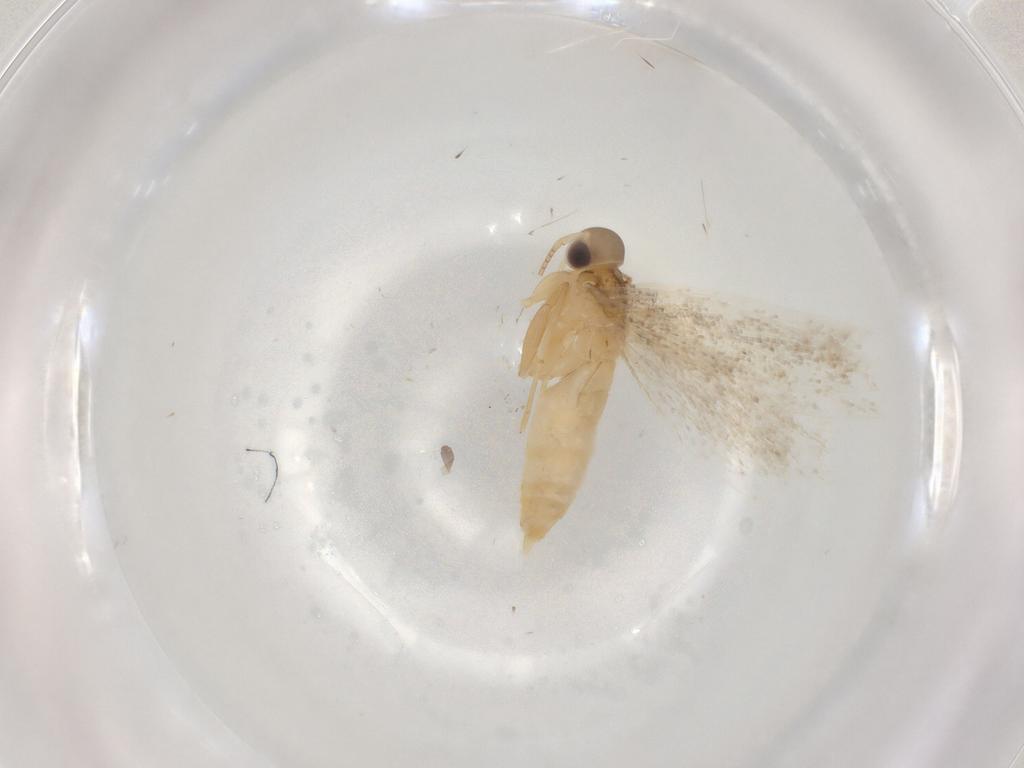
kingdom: Animalia
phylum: Arthropoda
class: Insecta
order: Lepidoptera
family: Autostichidae
